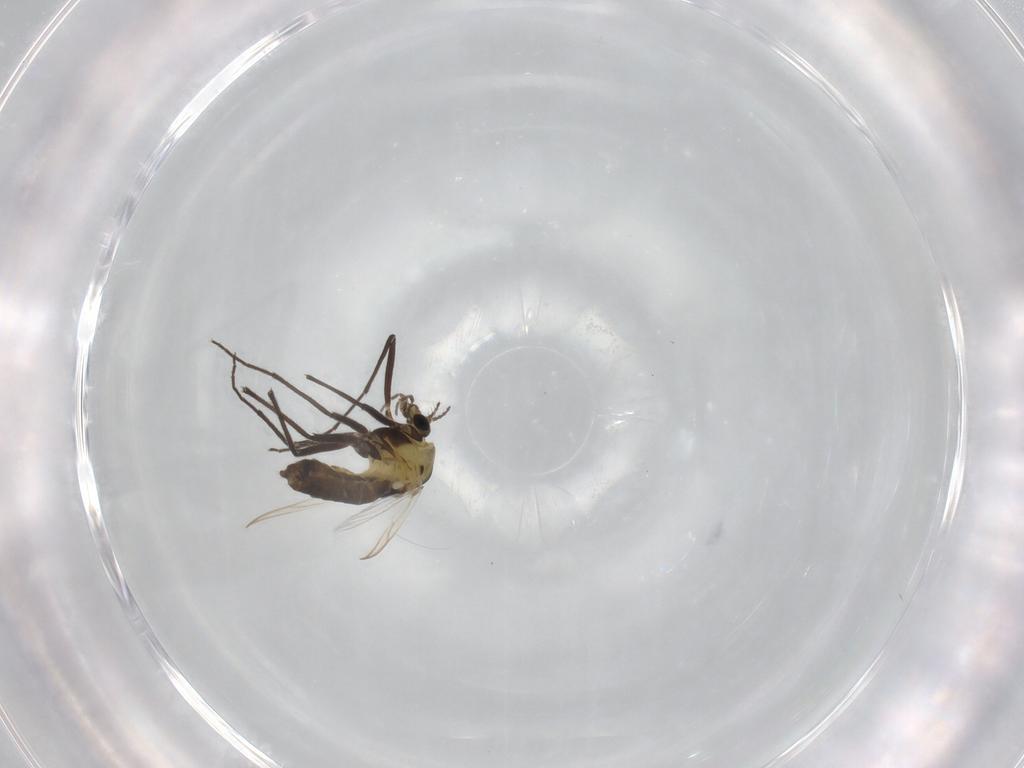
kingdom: Animalia
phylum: Arthropoda
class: Insecta
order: Diptera
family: Chironomidae
